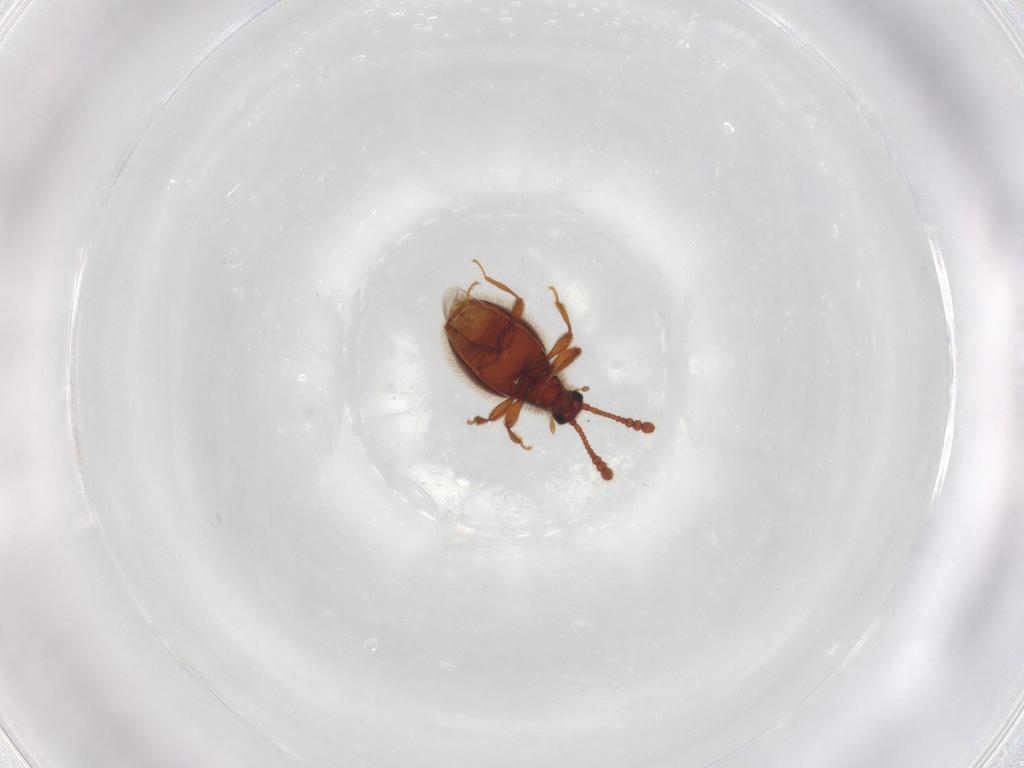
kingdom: Animalia
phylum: Arthropoda
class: Insecta
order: Coleoptera
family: Staphylinidae
